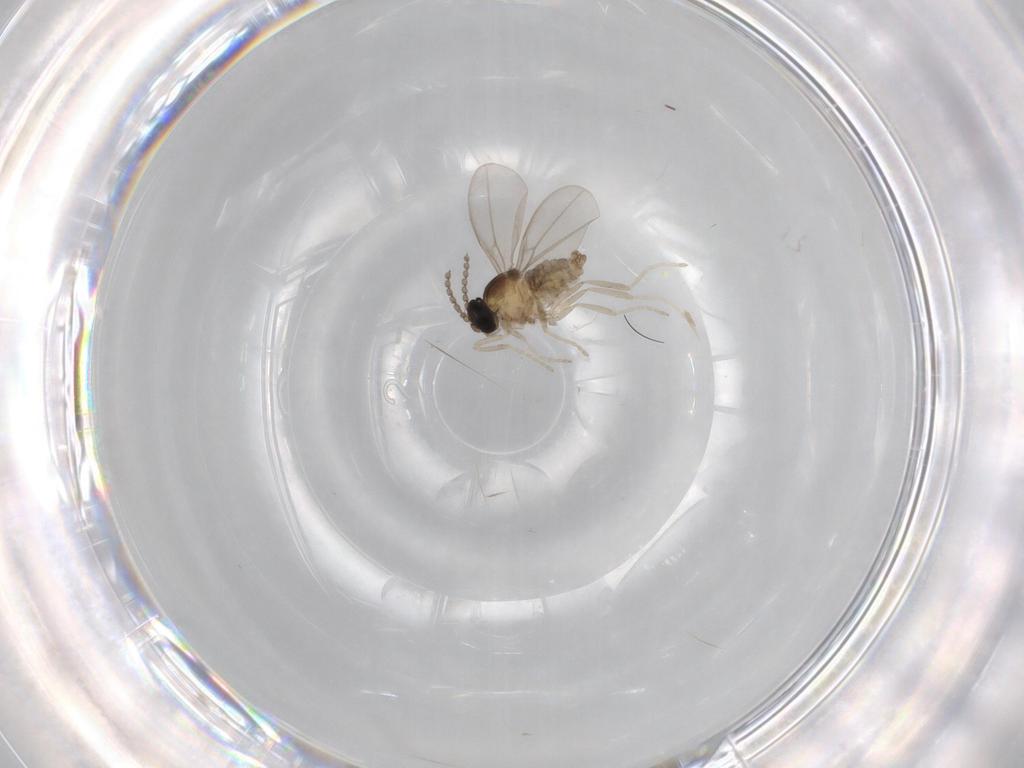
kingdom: Animalia
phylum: Arthropoda
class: Insecta
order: Diptera
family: Cecidomyiidae
